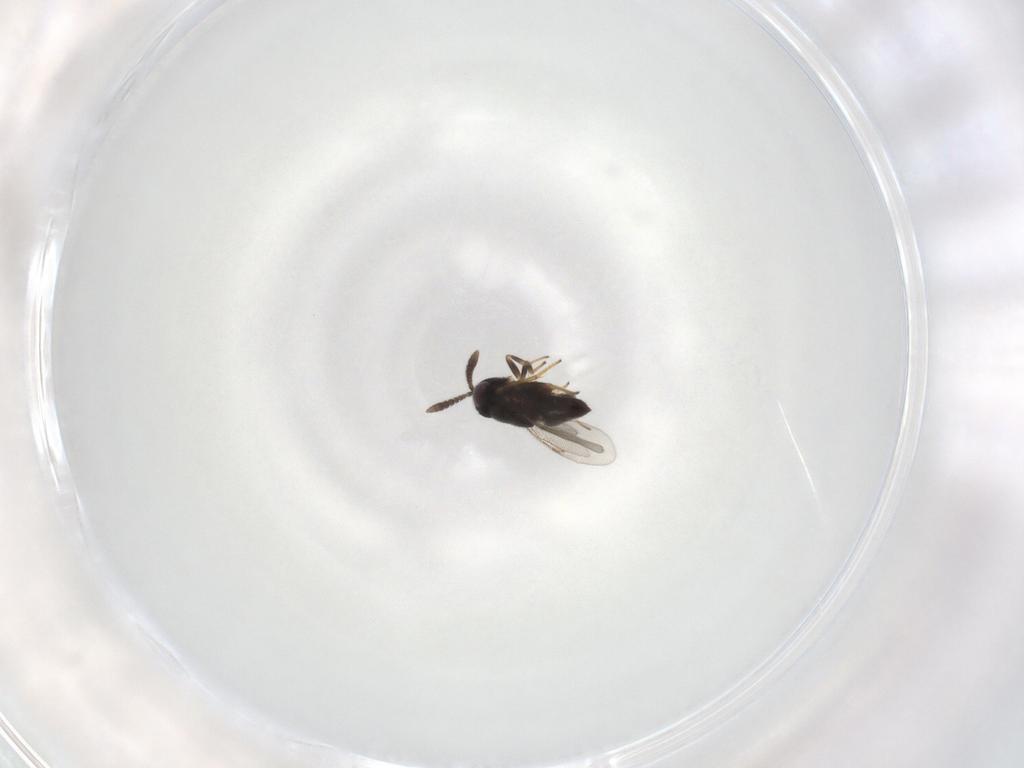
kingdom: Animalia
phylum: Arthropoda
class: Insecta
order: Hymenoptera
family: Encyrtidae
